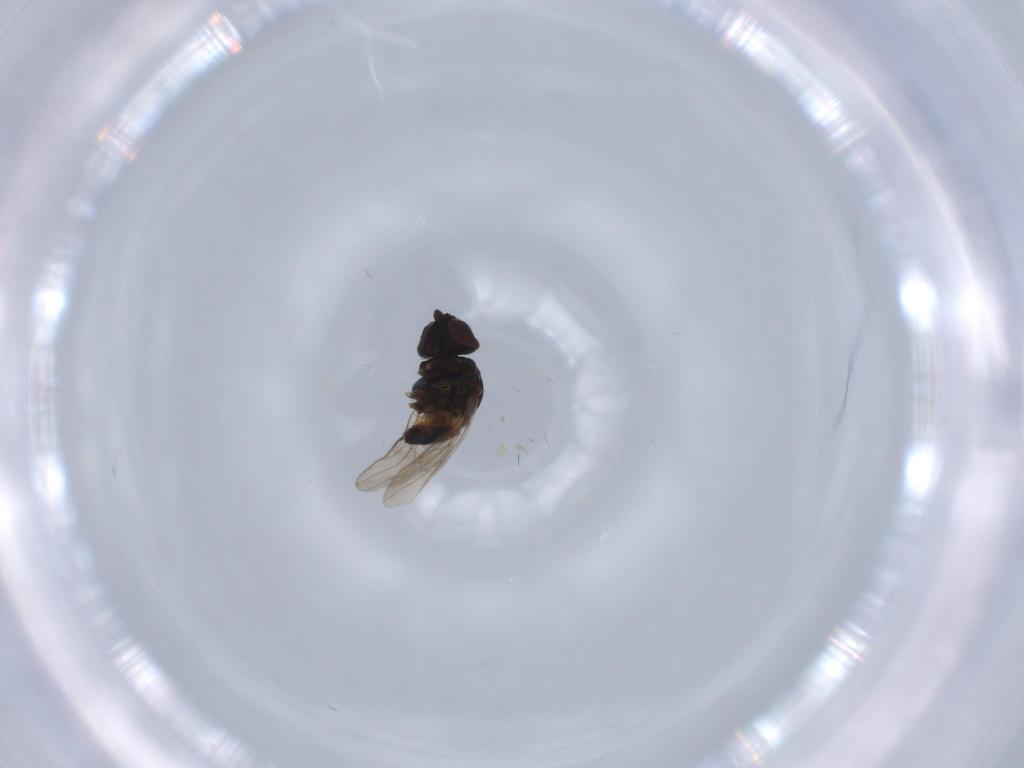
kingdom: Animalia
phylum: Arthropoda
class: Insecta
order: Diptera
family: Chloropidae
